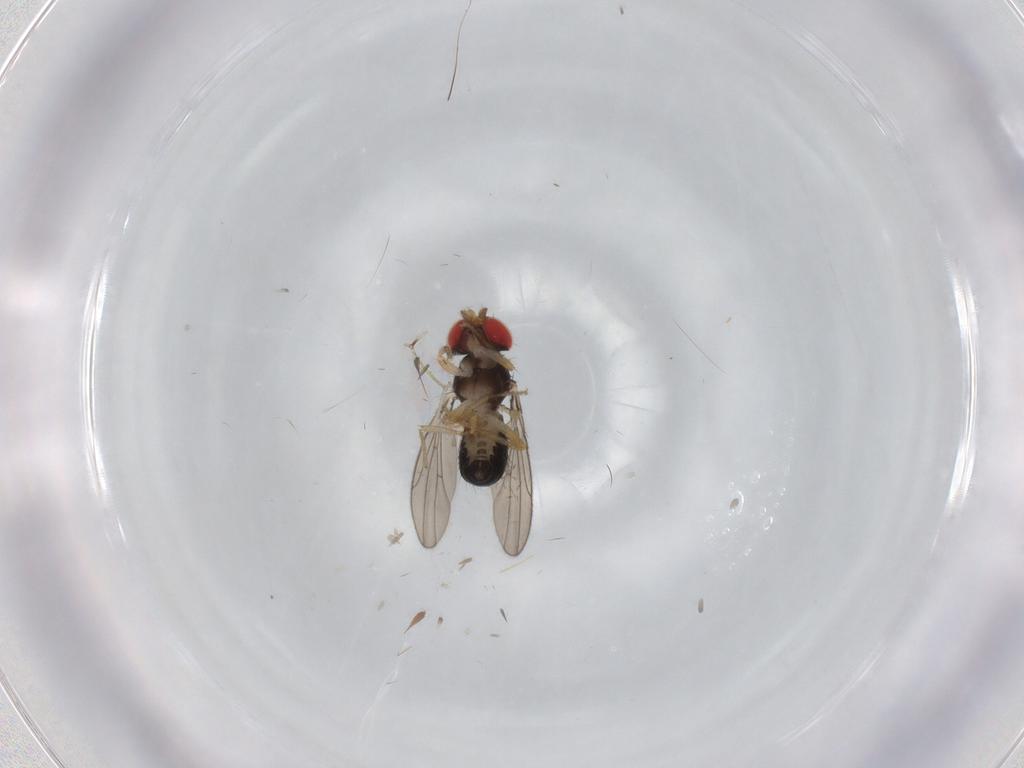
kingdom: Animalia
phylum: Arthropoda
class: Insecta
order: Diptera
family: Drosophilidae
